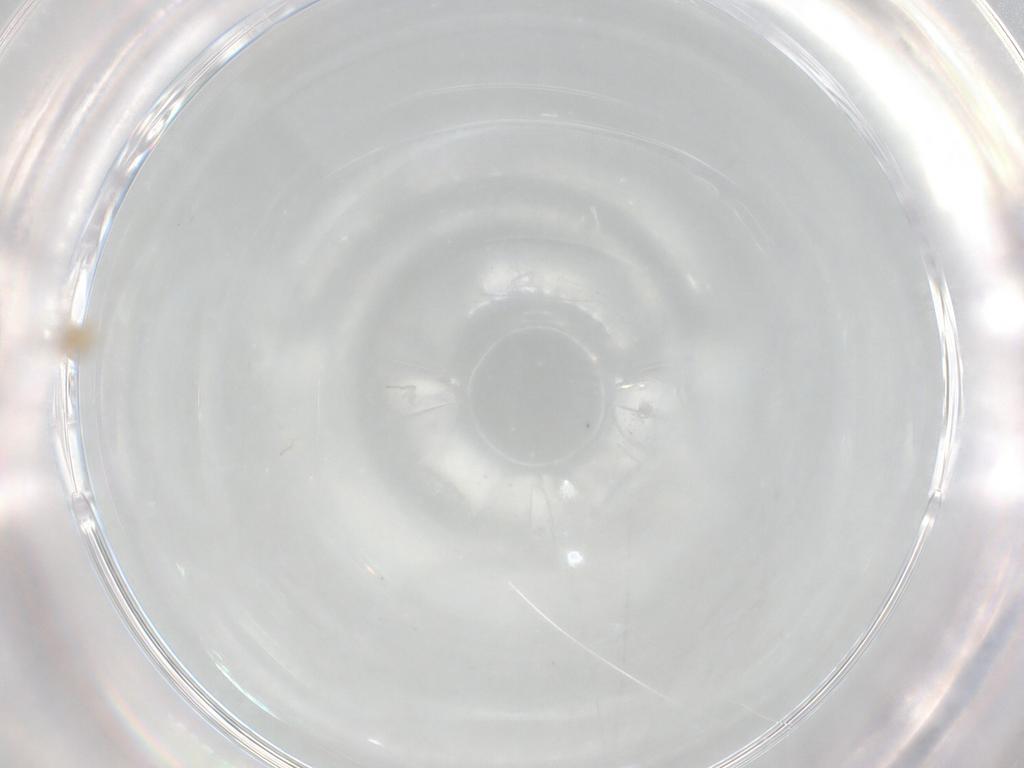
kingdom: Animalia
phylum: Arthropoda
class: Insecta
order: Hymenoptera
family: Aphelinidae
